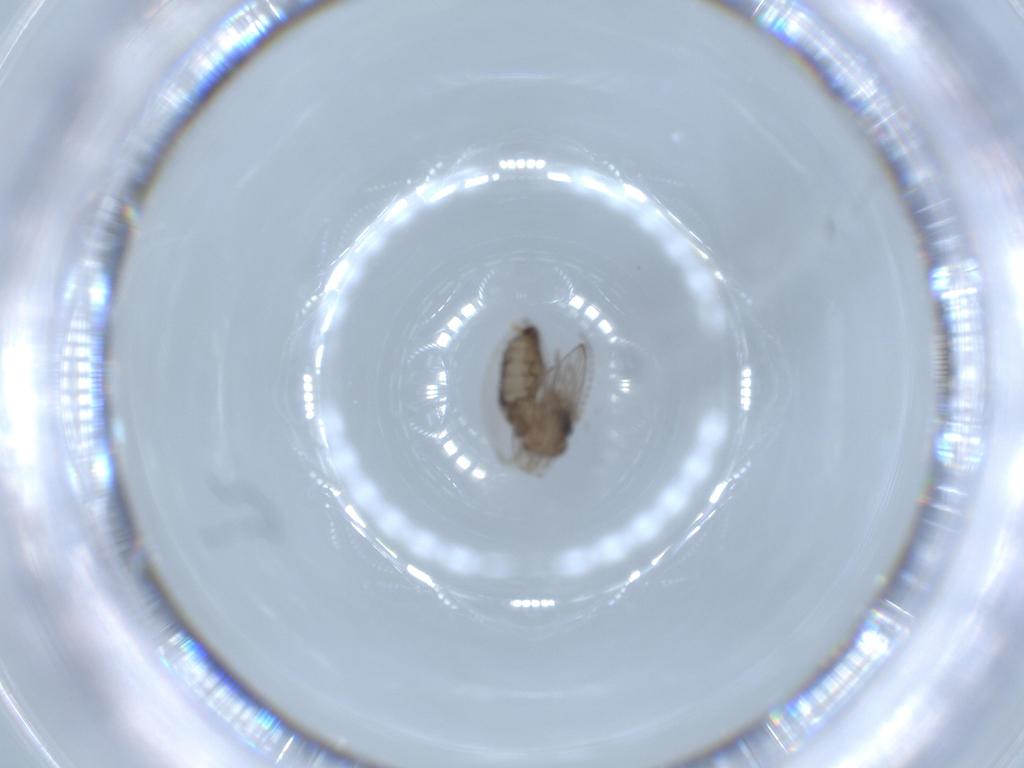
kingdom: Animalia
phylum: Arthropoda
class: Insecta
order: Diptera
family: Psychodidae
